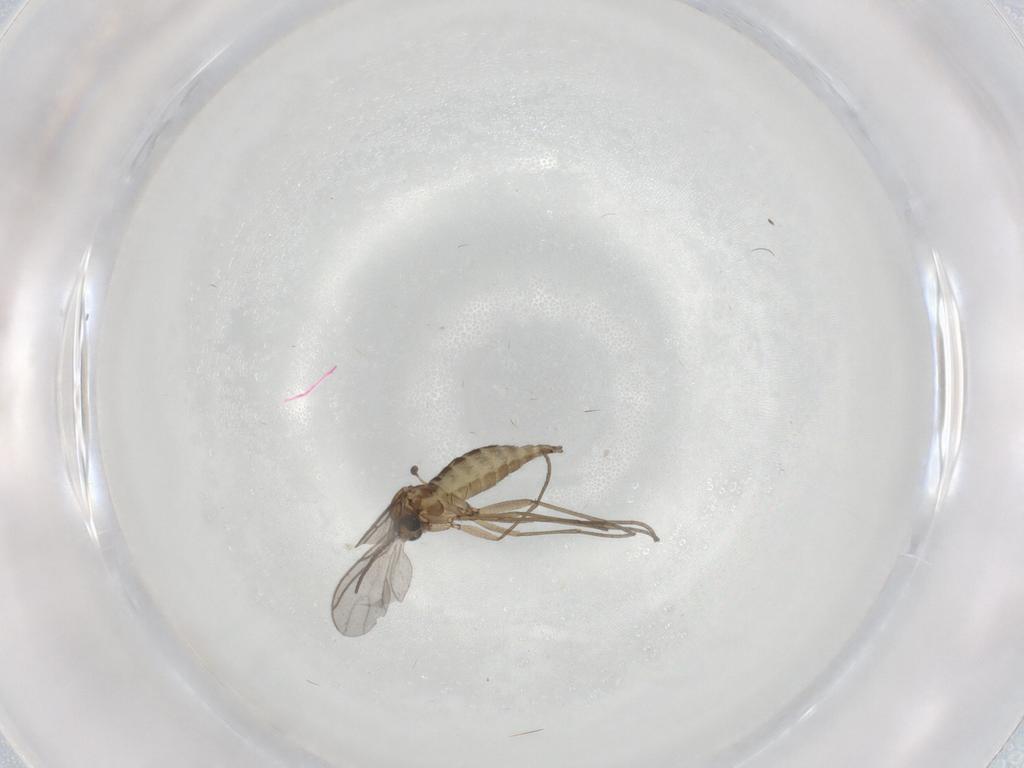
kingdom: Animalia
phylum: Arthropoda
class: Insecta
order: Diptera
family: Sciaridae
